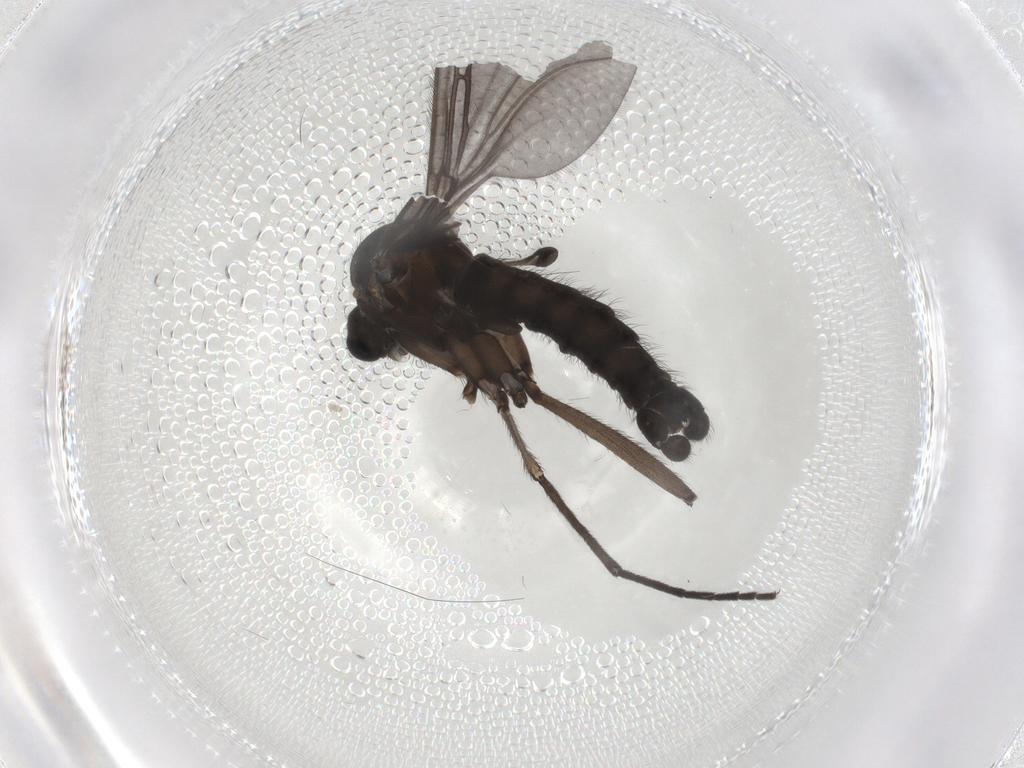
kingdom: Animalia
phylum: Arthropoda
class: Insecta
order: Diptera
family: Sciaridae
